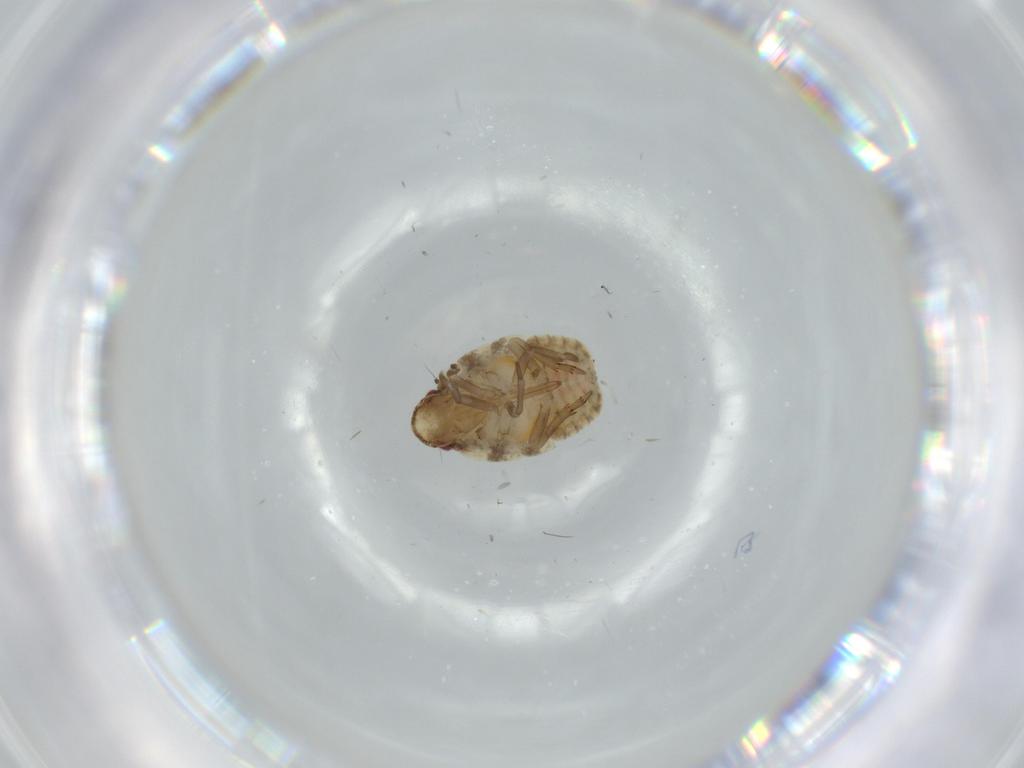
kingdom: Animalia
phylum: Arthropoda
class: Insecta
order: Hemiptera
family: Flatidae
